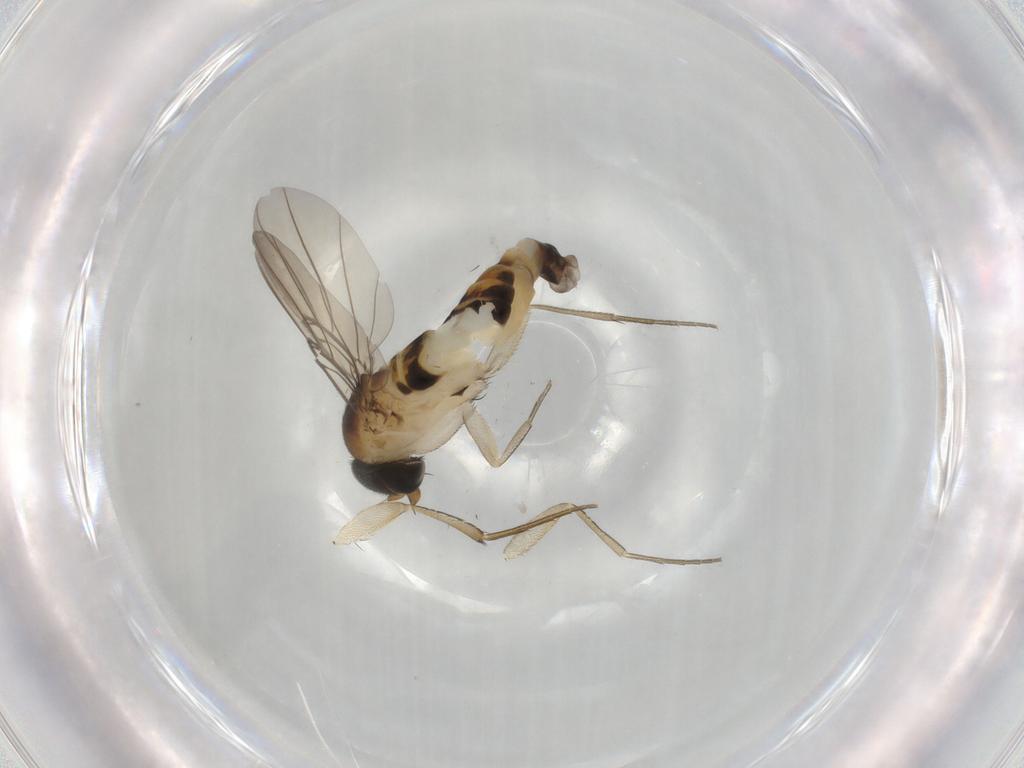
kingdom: Animalia
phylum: Arthropoda
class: Insecta
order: Diptera
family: Phoridae
